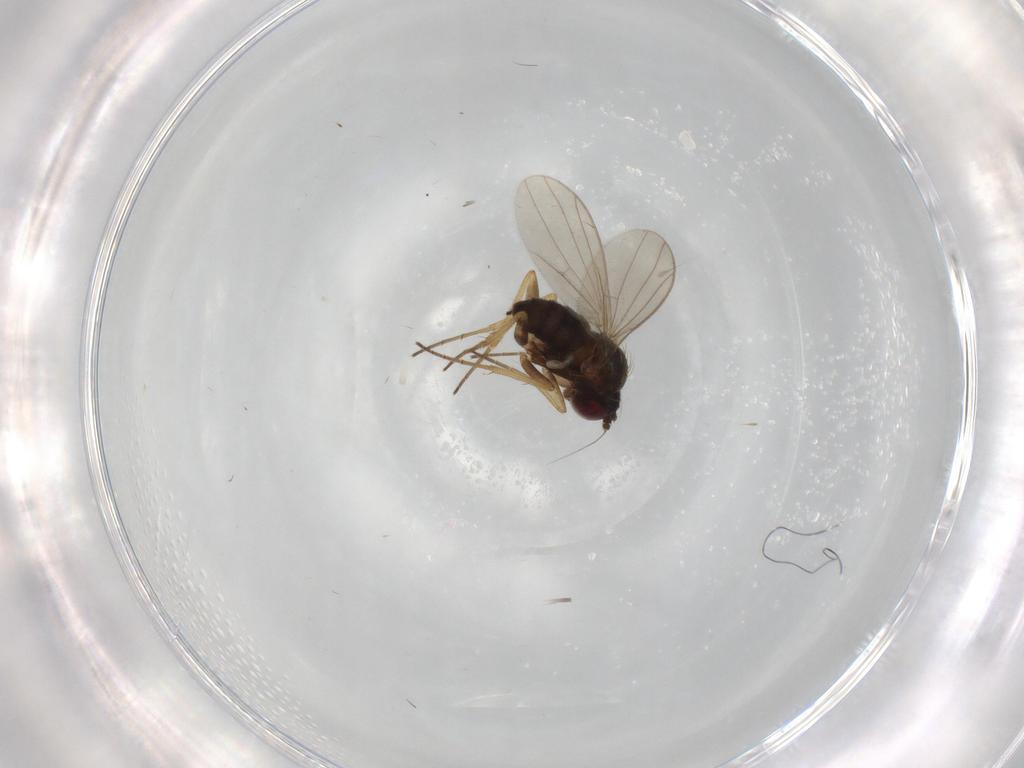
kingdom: Animalia
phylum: Arthropoda
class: Insecta
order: Diptera
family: Dolichopodidae
